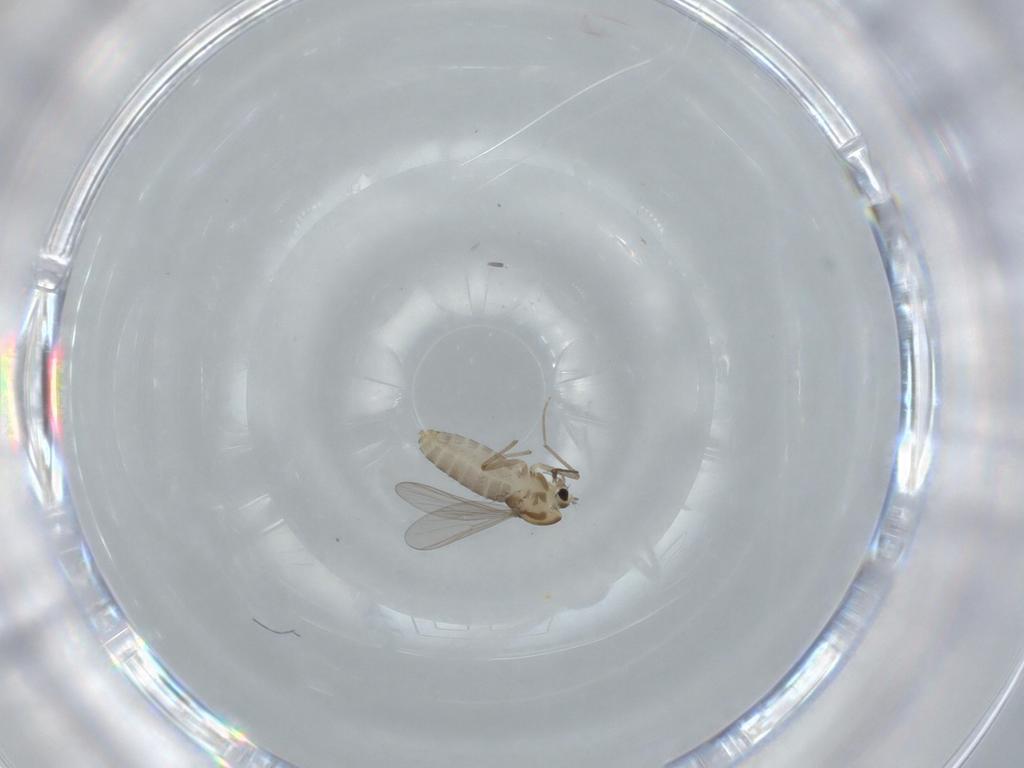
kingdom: Animalia
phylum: Arthropoda
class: Insecta
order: Diptera
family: Chironomidae
